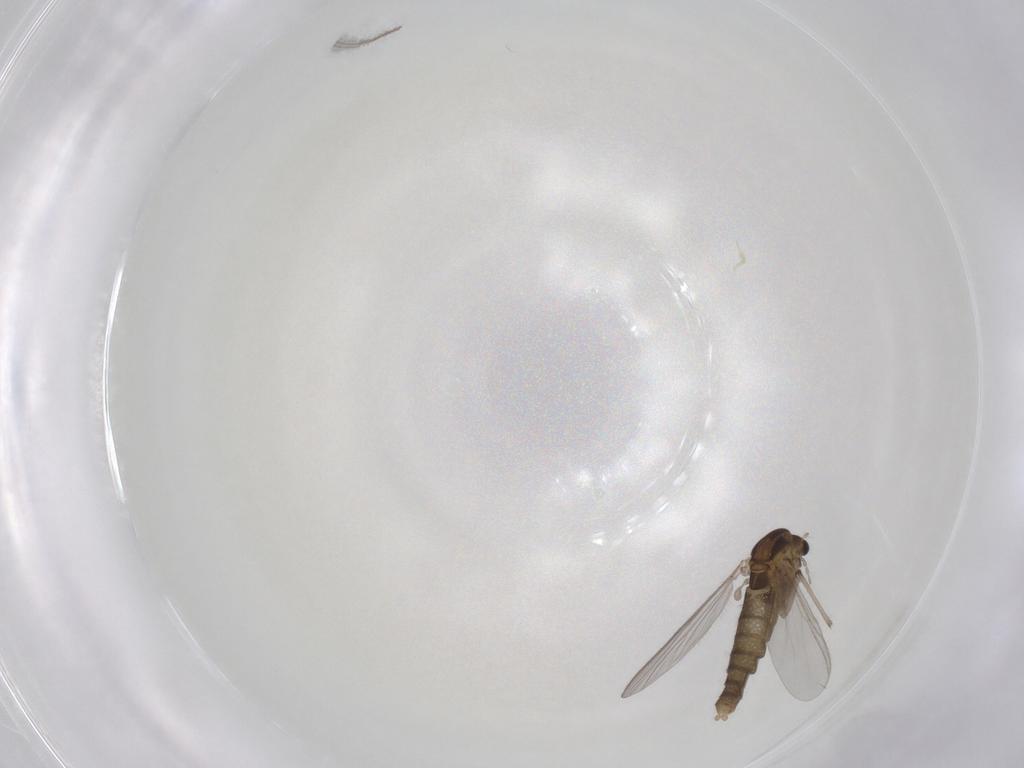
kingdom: Animalia
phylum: Arthropoda
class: Insecta
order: Diptera
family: Chironomidae
